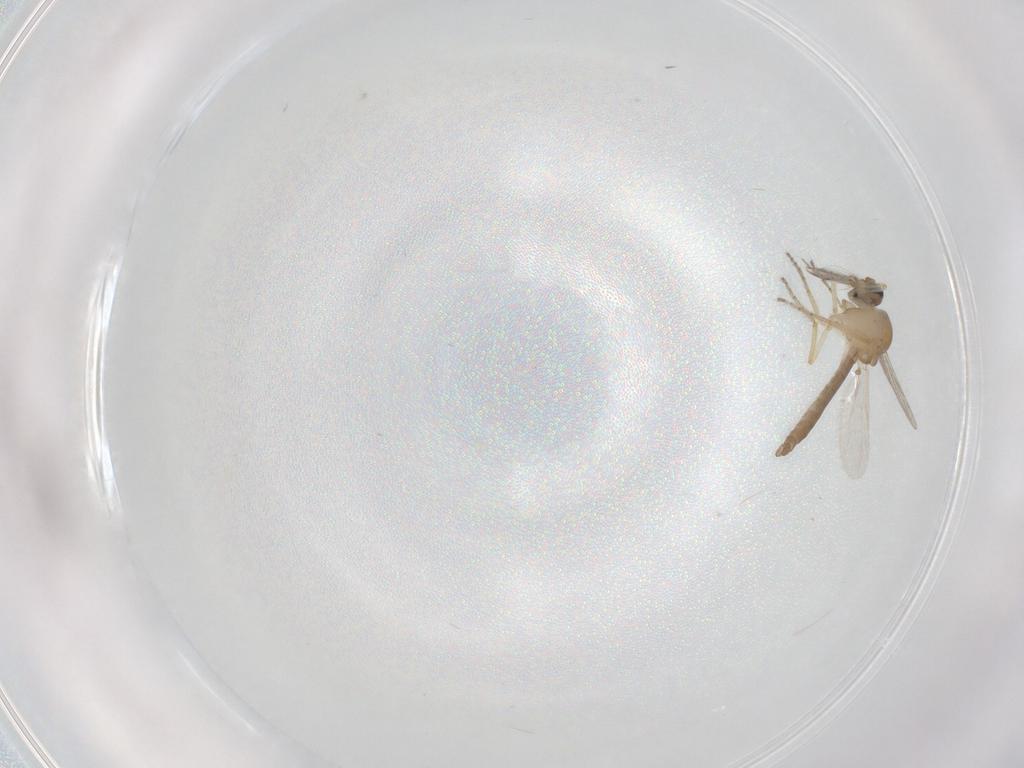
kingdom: Animalia
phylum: Arthropoda
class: Insecta
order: Diptera
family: Ceratopogonidae
